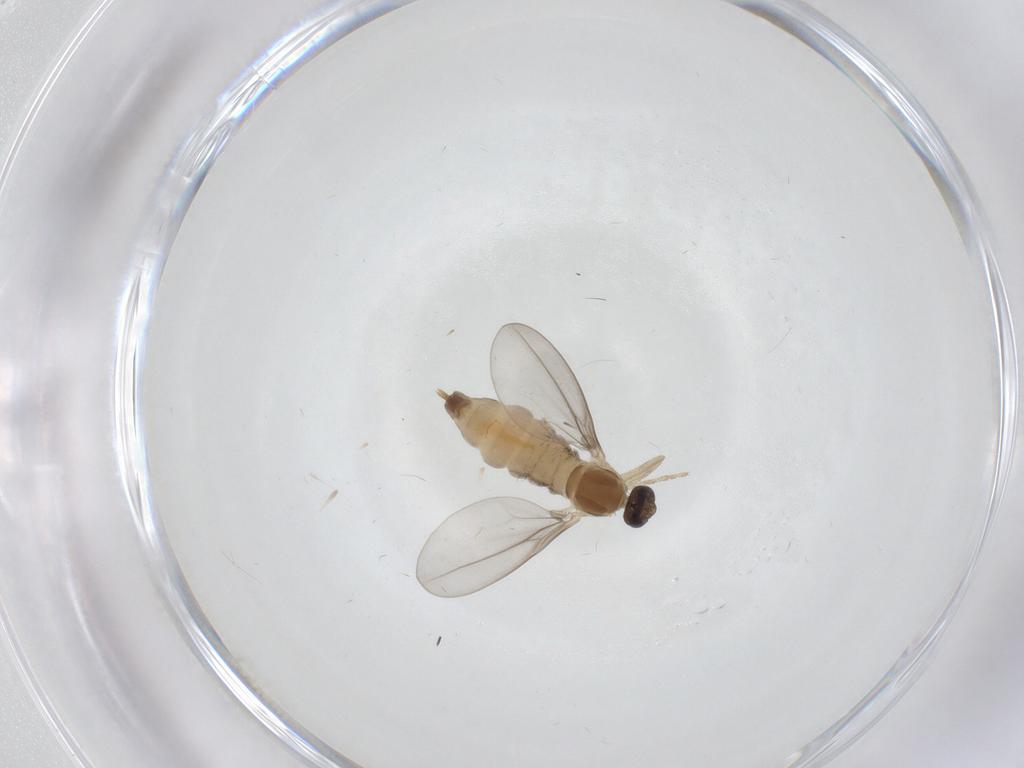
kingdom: Animalia
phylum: Arthropoda
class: Insecta
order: Diptera
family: Cecidomyiidae
